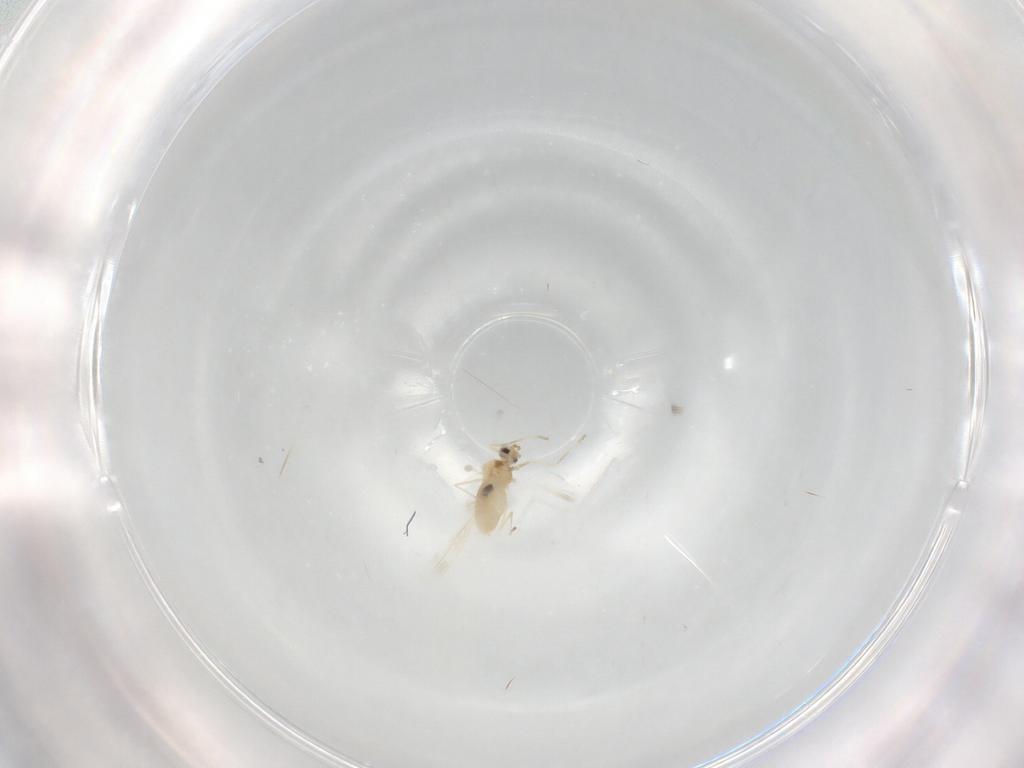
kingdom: Animalia
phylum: Arthropoda
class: Insecta
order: Diptera
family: Cecidomyiidae
